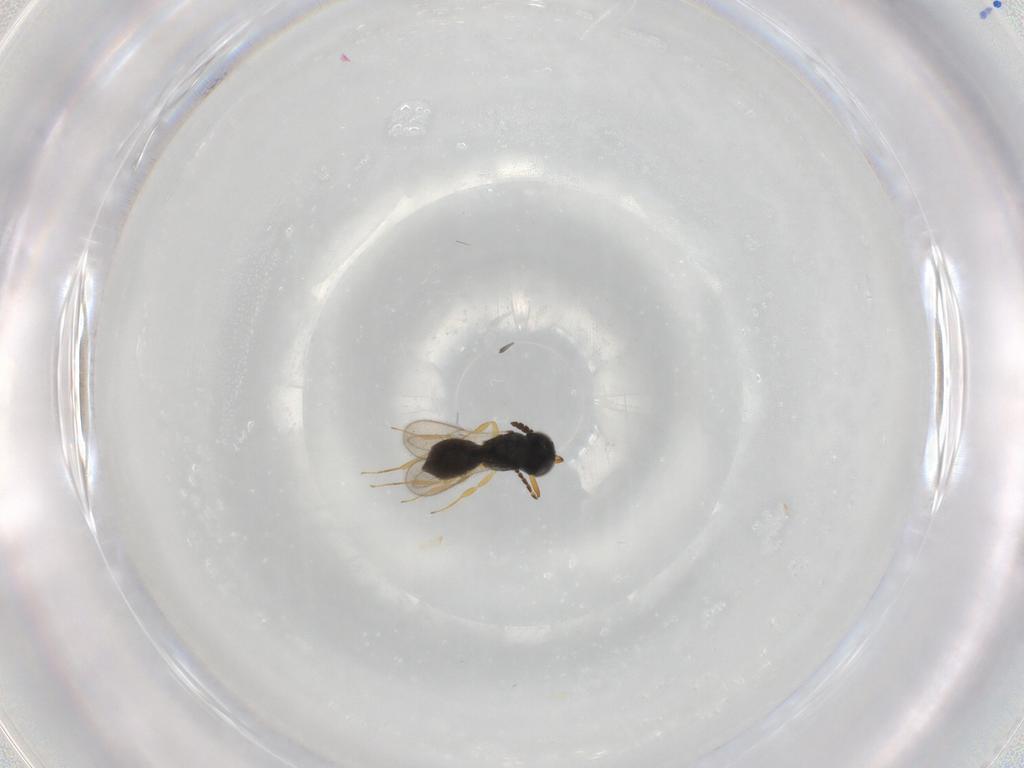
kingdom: Animalia
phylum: Arthropoda
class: Insecta
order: Hymenoptera
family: Scelionidae
